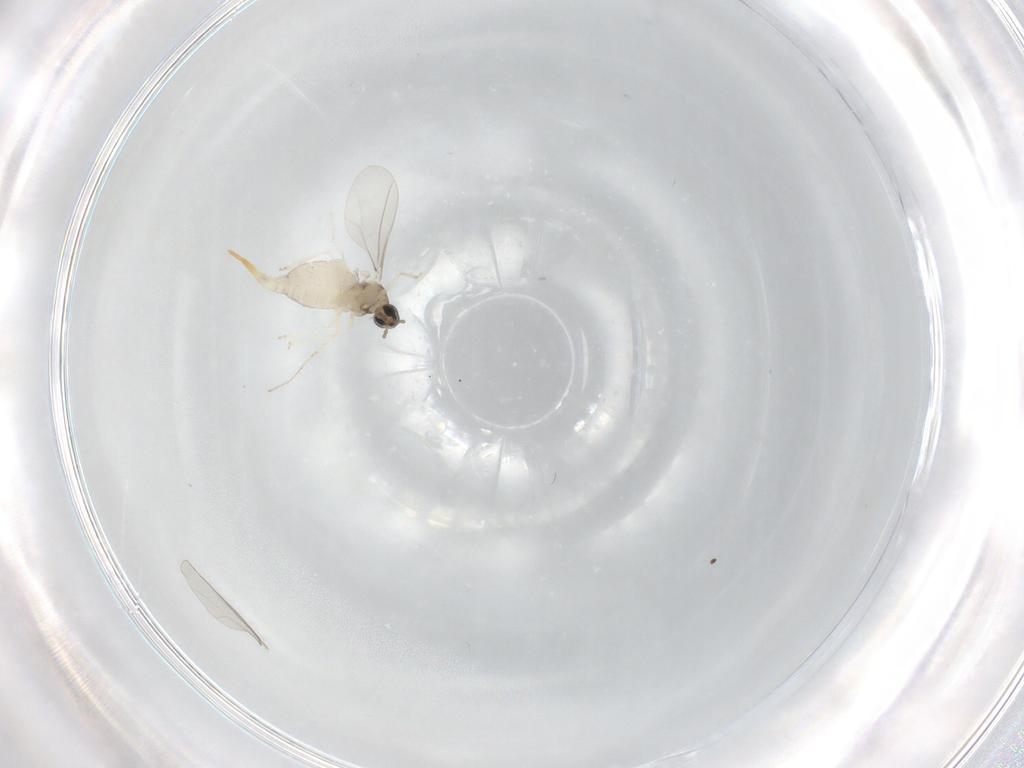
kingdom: Animalia
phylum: Arthropoda
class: Insecta
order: Diptera
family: Cecidomyiidae
